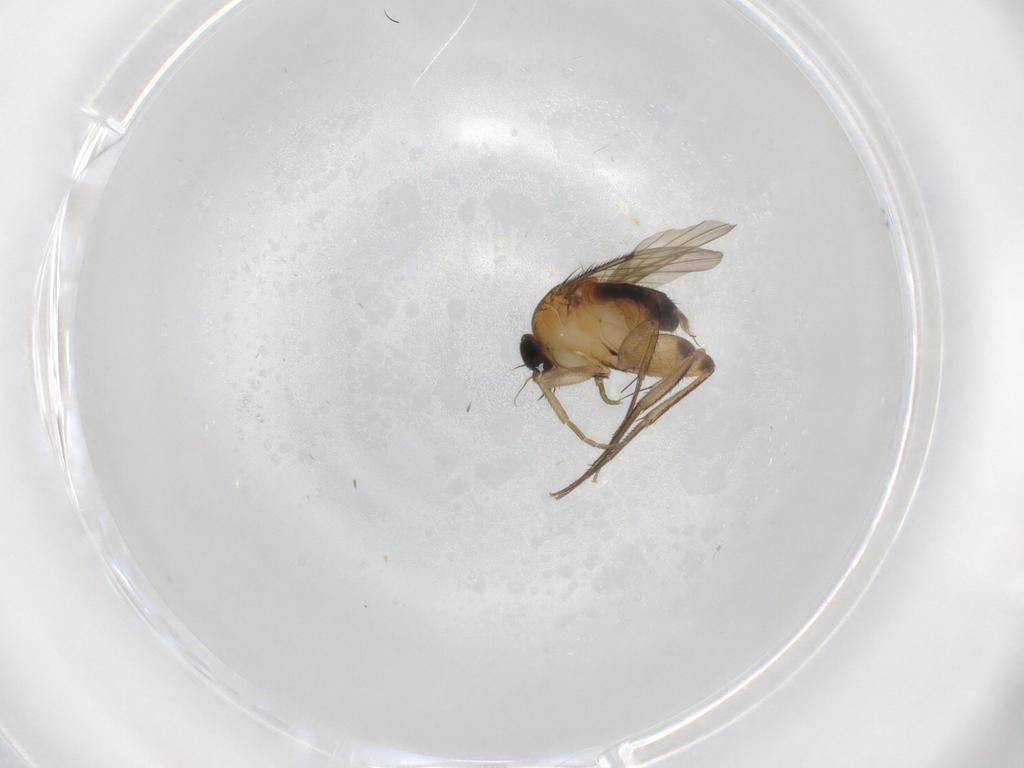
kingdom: Animalia
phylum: Arthropoda
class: Insecta
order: Diptera
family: Phoridae
